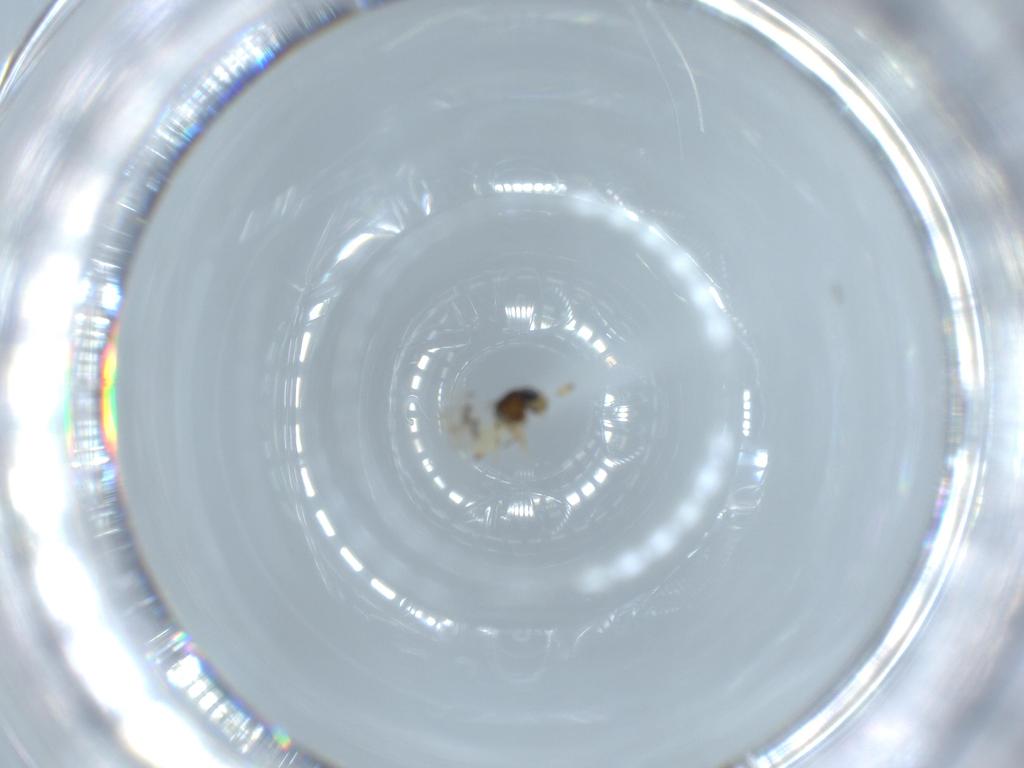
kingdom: Animalia
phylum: Arthropoda
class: Insecta
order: Hymenoptera
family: Scelionidae
